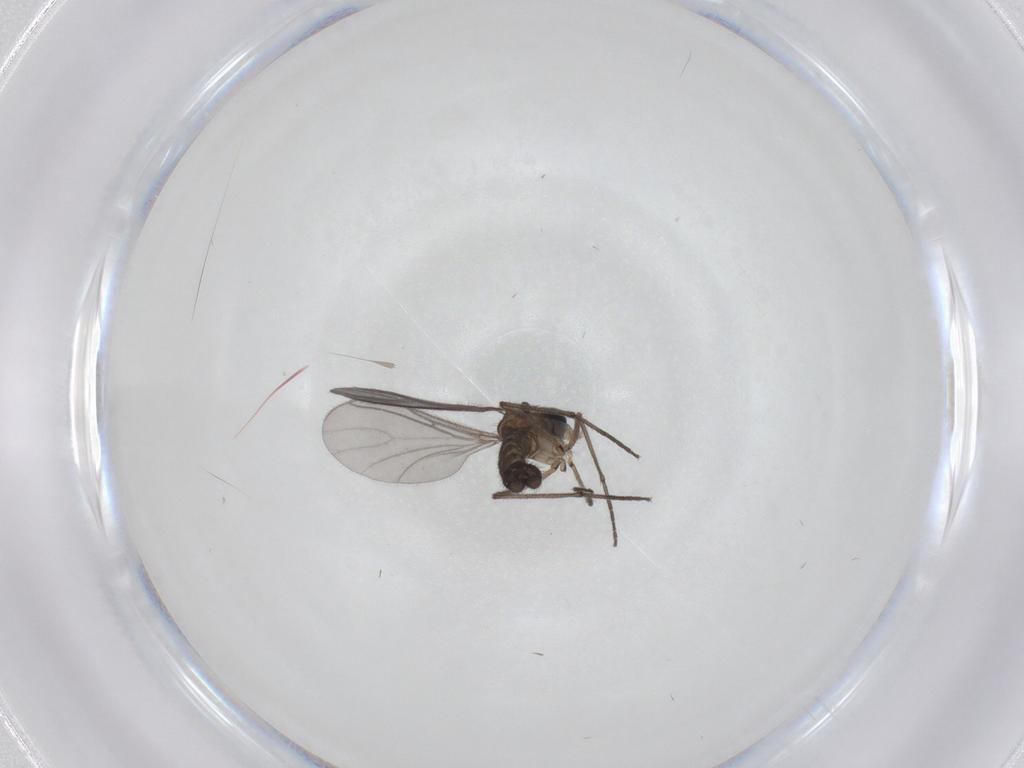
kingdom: Animalia
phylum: Arthropoda
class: Insecta
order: Diptera
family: Sciaridae
